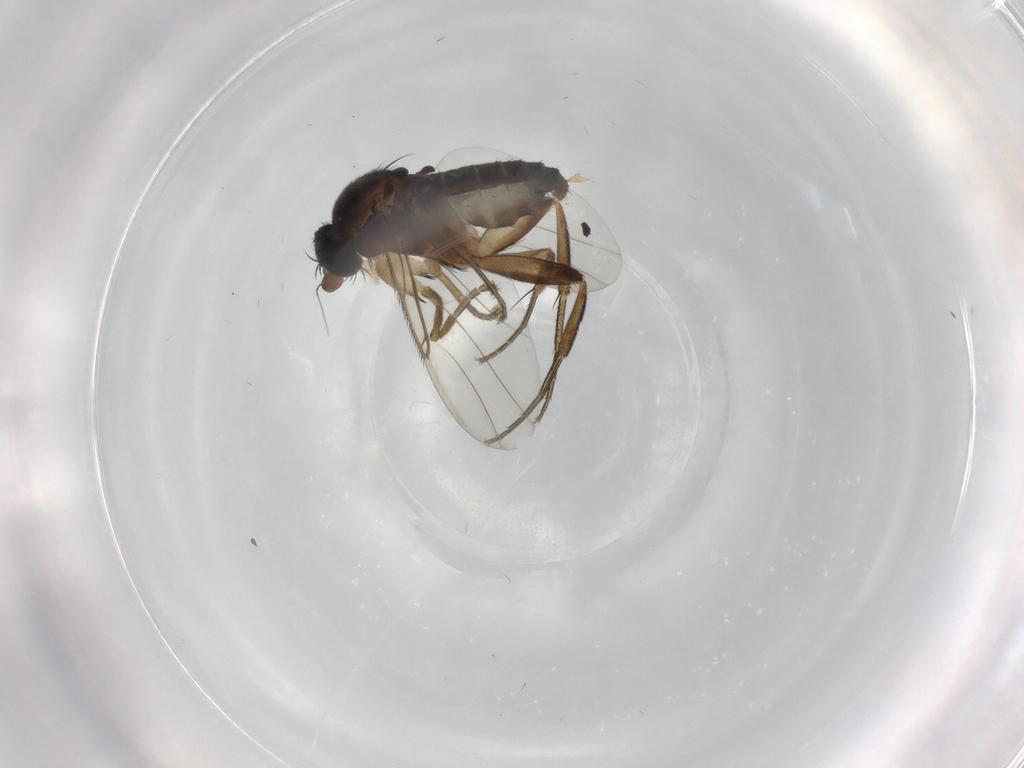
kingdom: Animalia
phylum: Arthropoda
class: Insecta
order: Diptera
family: Phoridae
